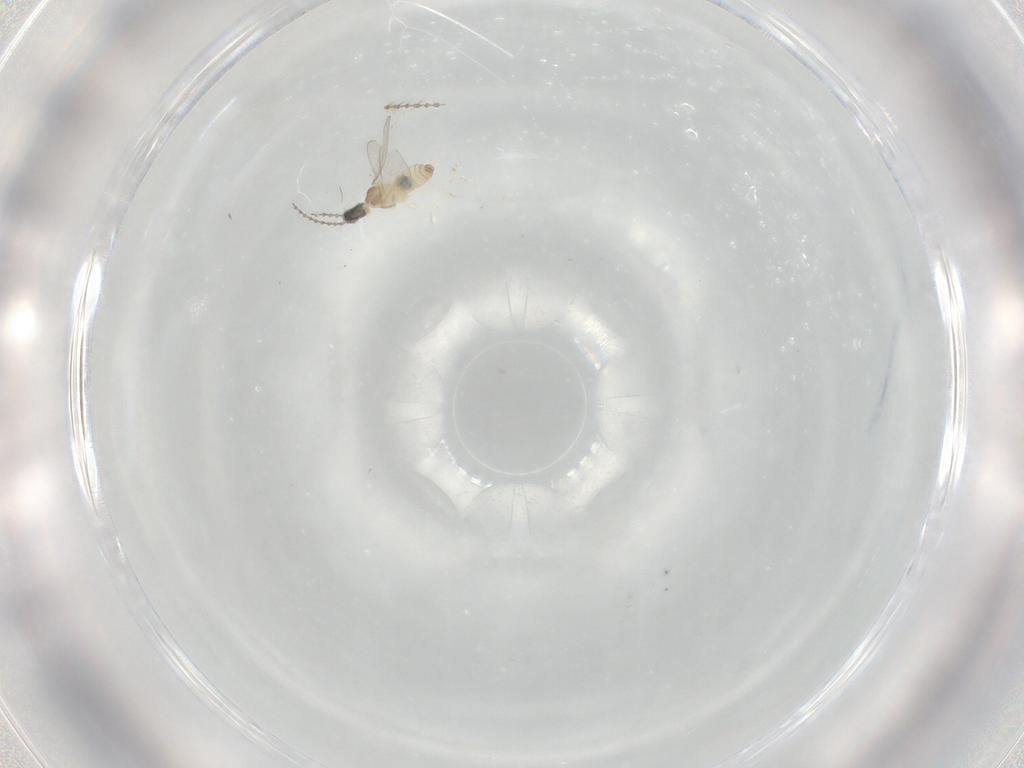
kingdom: Animalia
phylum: Arthropoda
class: Insecta
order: Diptera
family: Cecidomyiidae
